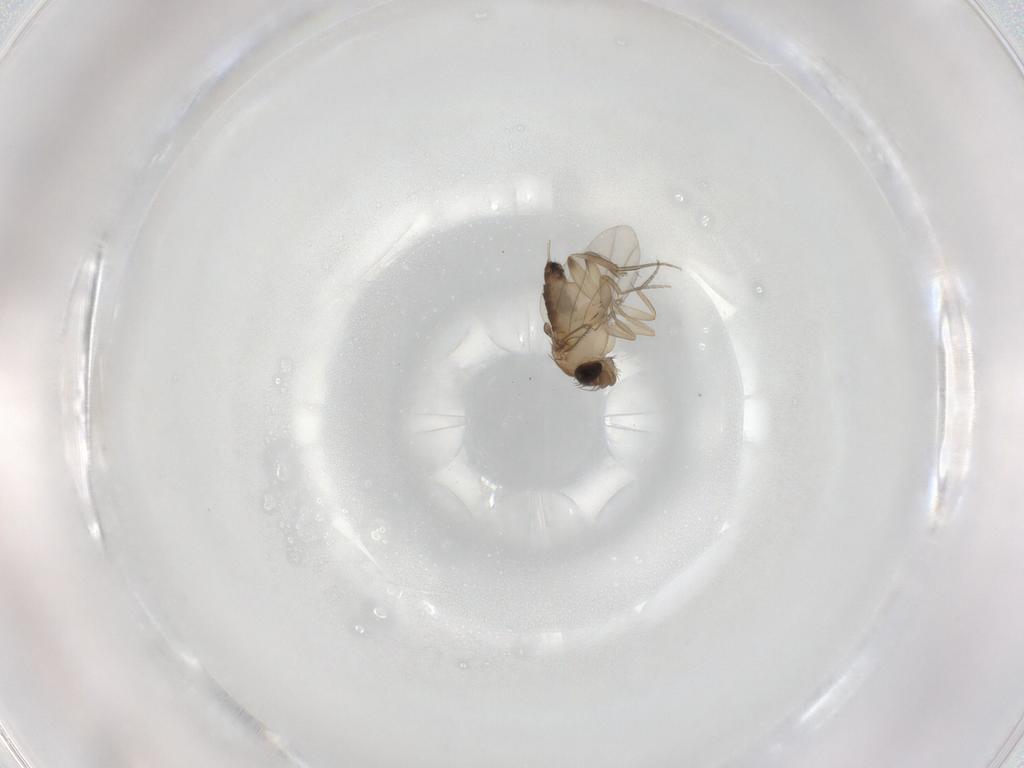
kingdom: Animalia
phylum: Arthropoda
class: Insecta
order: Diptera
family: Phoridae
